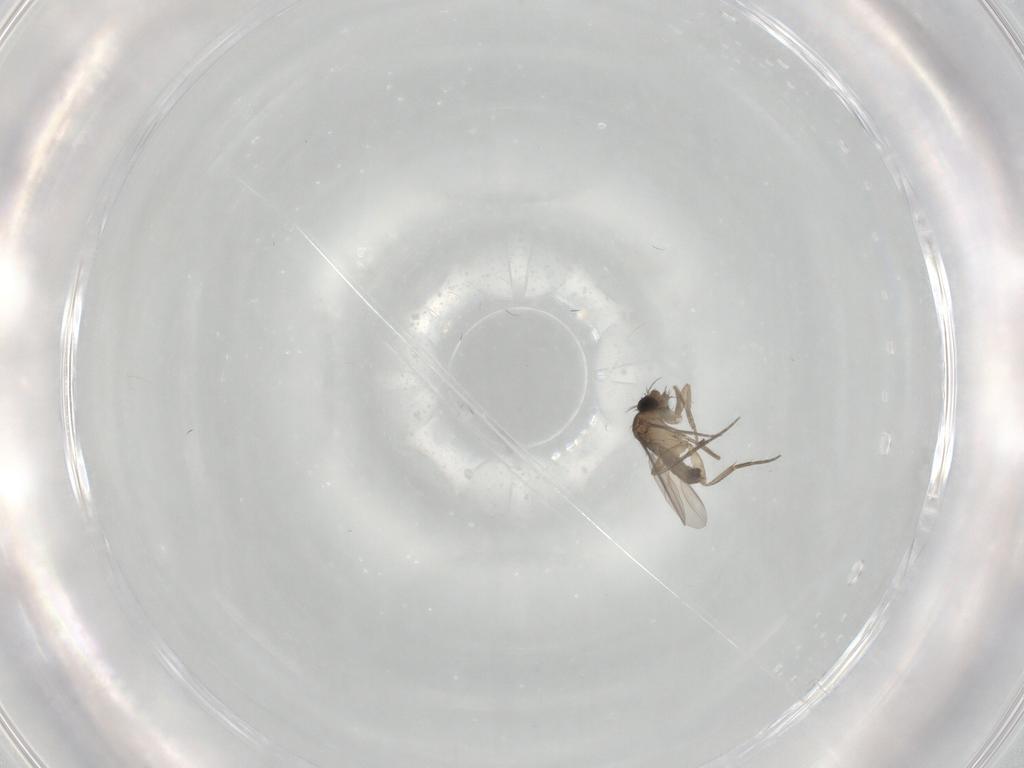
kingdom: Animalia
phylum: Arthropoda
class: Insecta
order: Diptera
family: Phoridae
